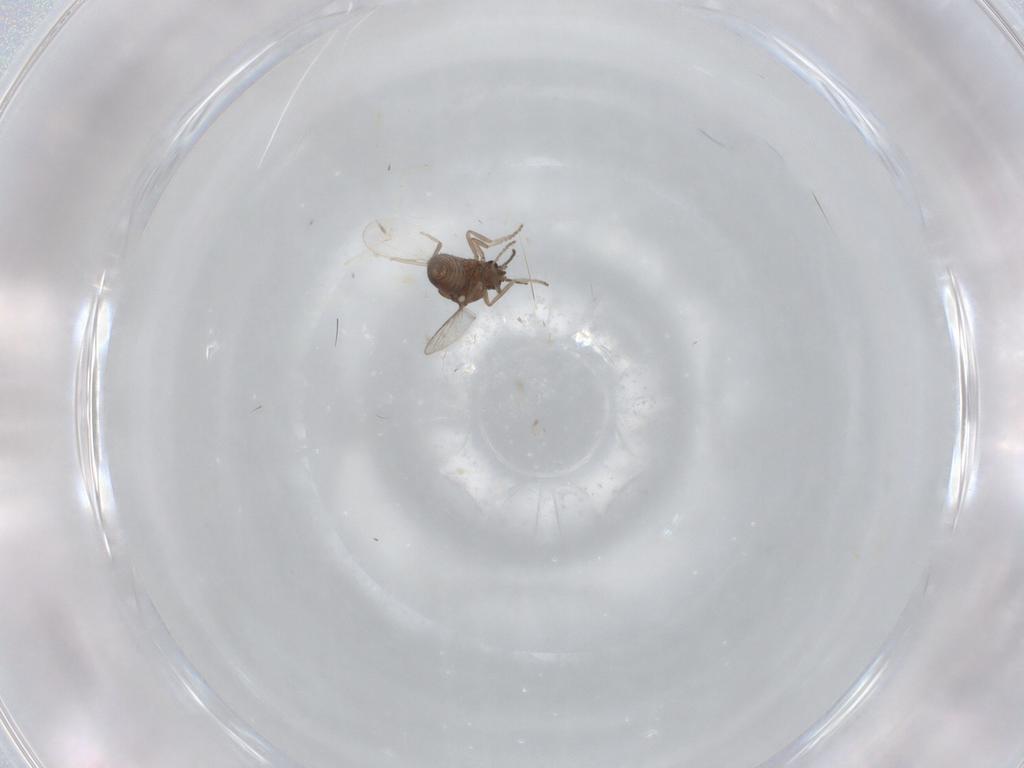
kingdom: Animalia
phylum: Arthropoda
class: Insecta
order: Diptera
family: Ceratopogonidae
